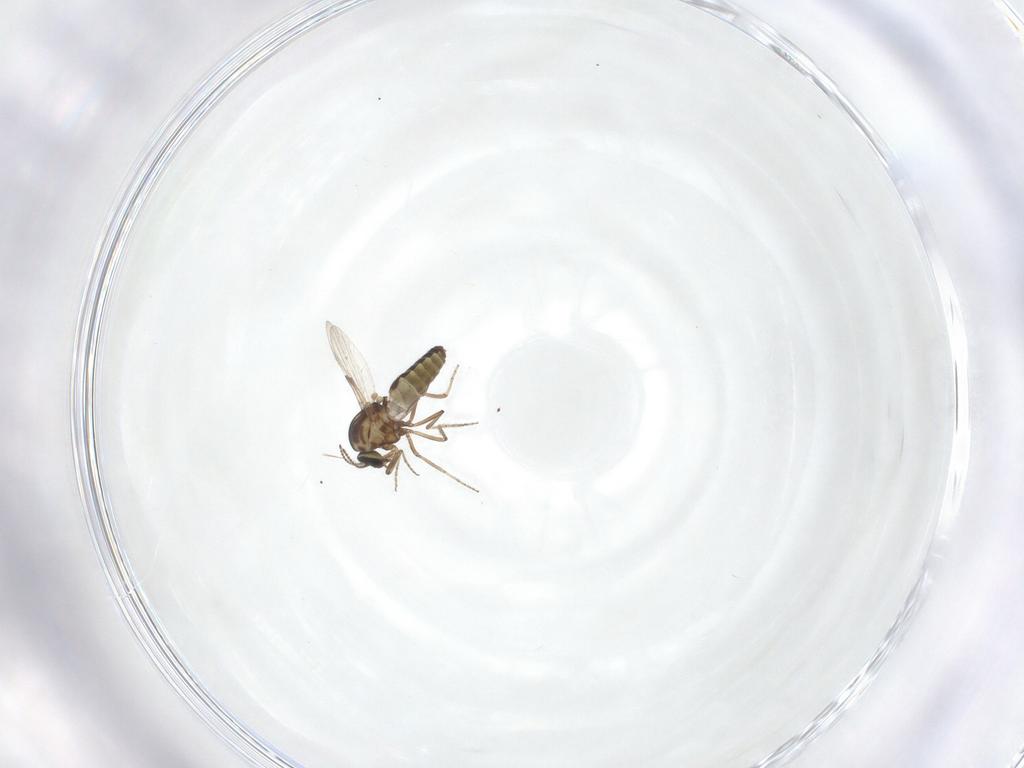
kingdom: Animalia
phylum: Arthropoda
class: Insecta
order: Diptera
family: Ceratopogonidae
